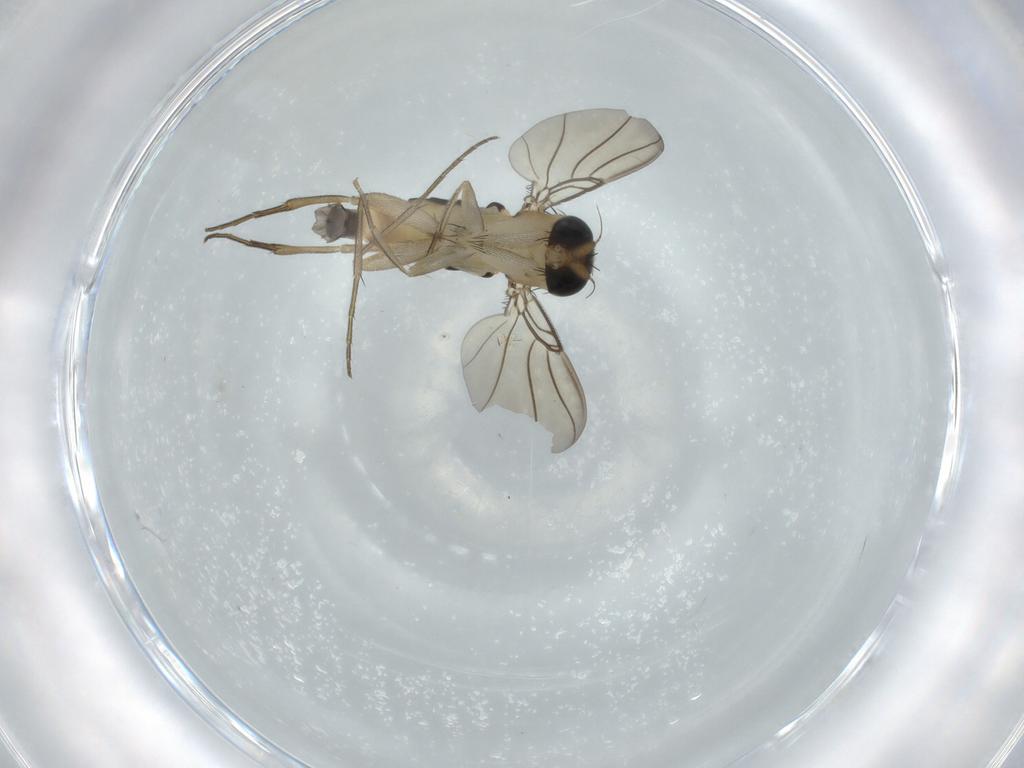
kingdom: Animalia
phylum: Arthropoda
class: Insecta
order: Diptera
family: Phoridae
